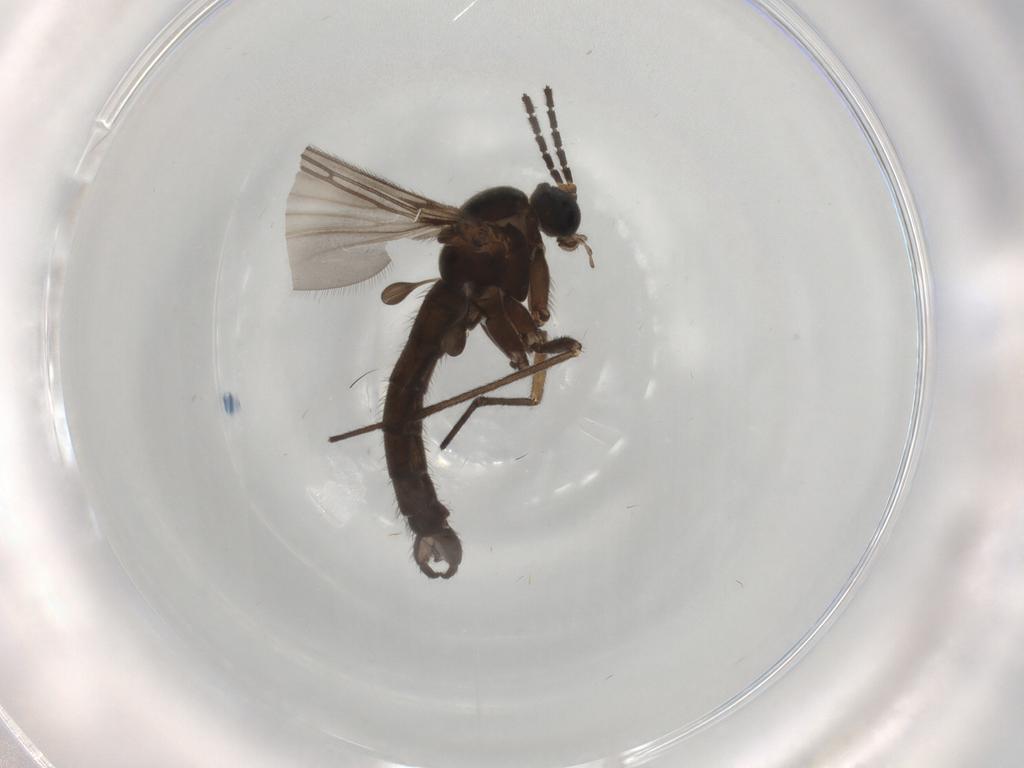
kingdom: Animalia
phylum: Arthropoda
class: Insecta
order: Diptera
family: Sciaridae
